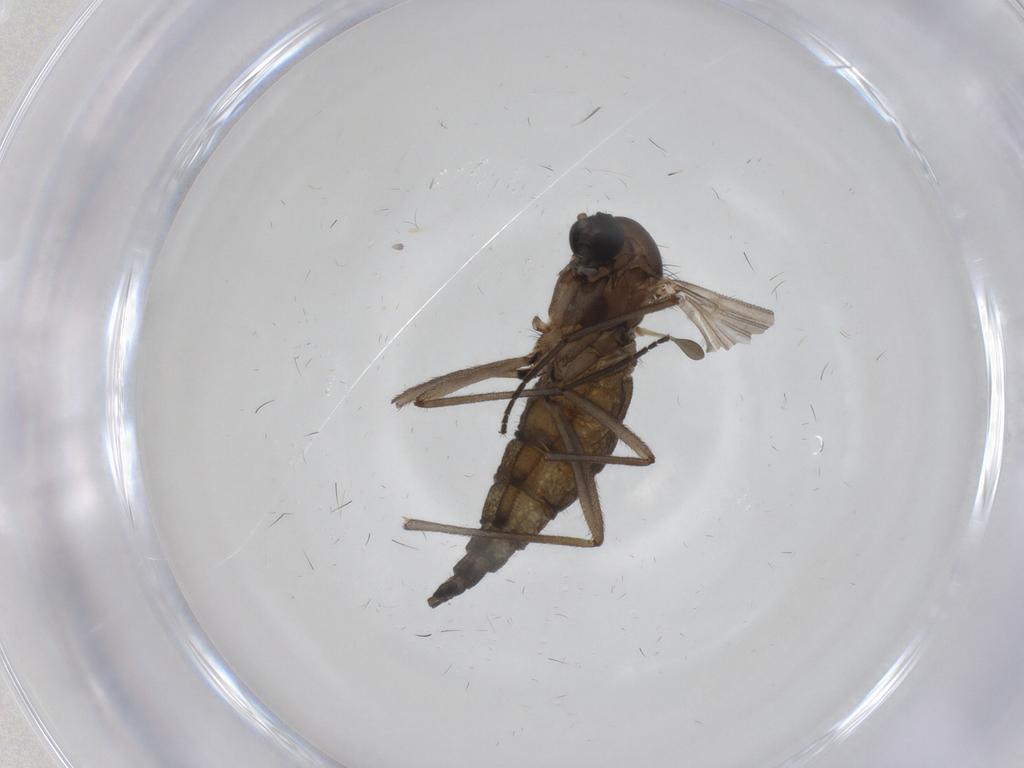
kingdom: Animalia
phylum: Arthropoda
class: Insecta
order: Diptera
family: Sciaridae
